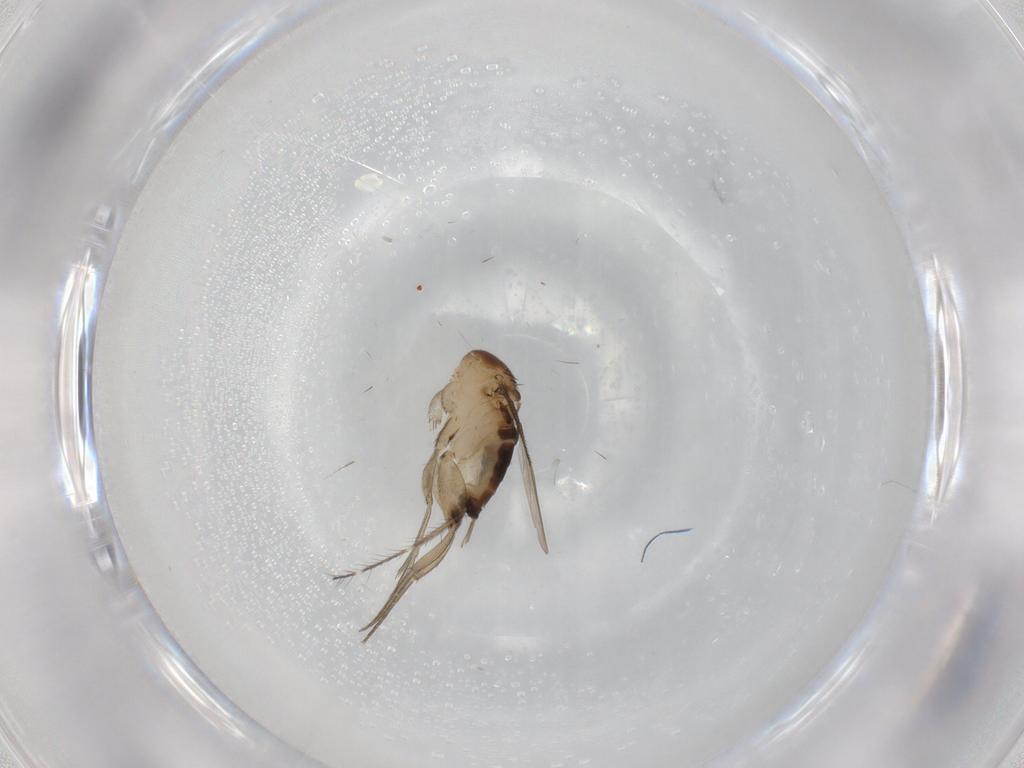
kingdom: Animalia
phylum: Arthropoda
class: Insecta
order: Diptera
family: Phoridae
